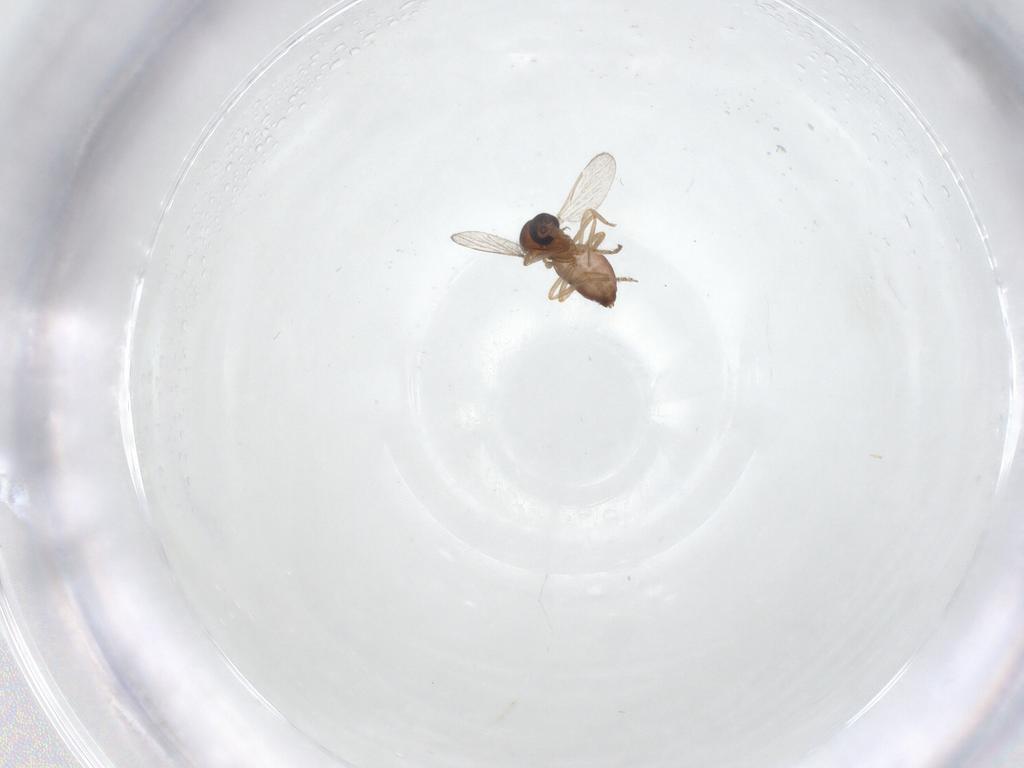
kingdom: Animalia
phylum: Arthropoda
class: Insecta
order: Diptera
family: Ceratopogonidae
